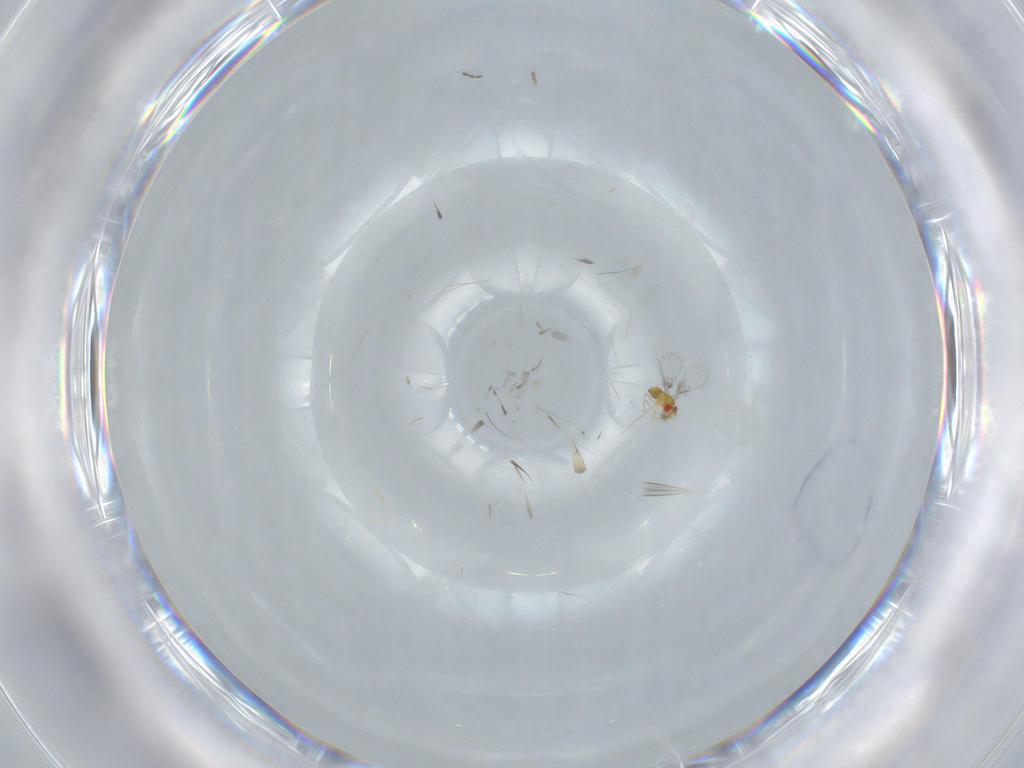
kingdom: Animalia
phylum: Arthropoda
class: Insecta
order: Hymenoptera
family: Trichogrammatidae
